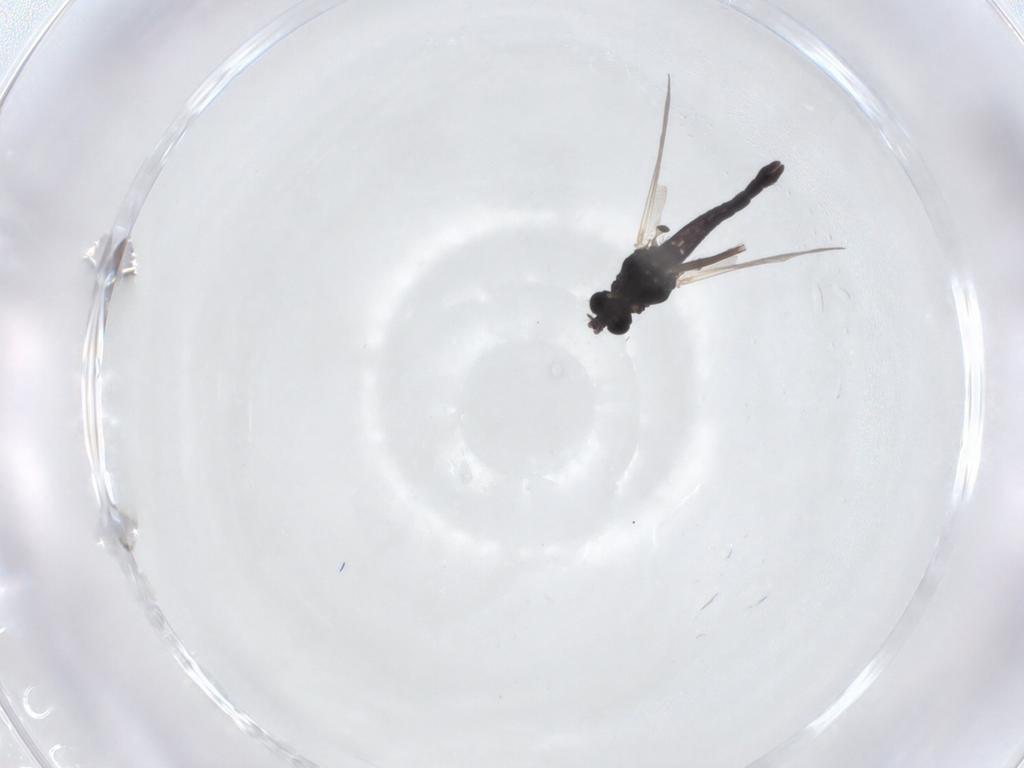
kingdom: Animalia
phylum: Arthropoda
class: Insecta
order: Diptera
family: Chironomidae
